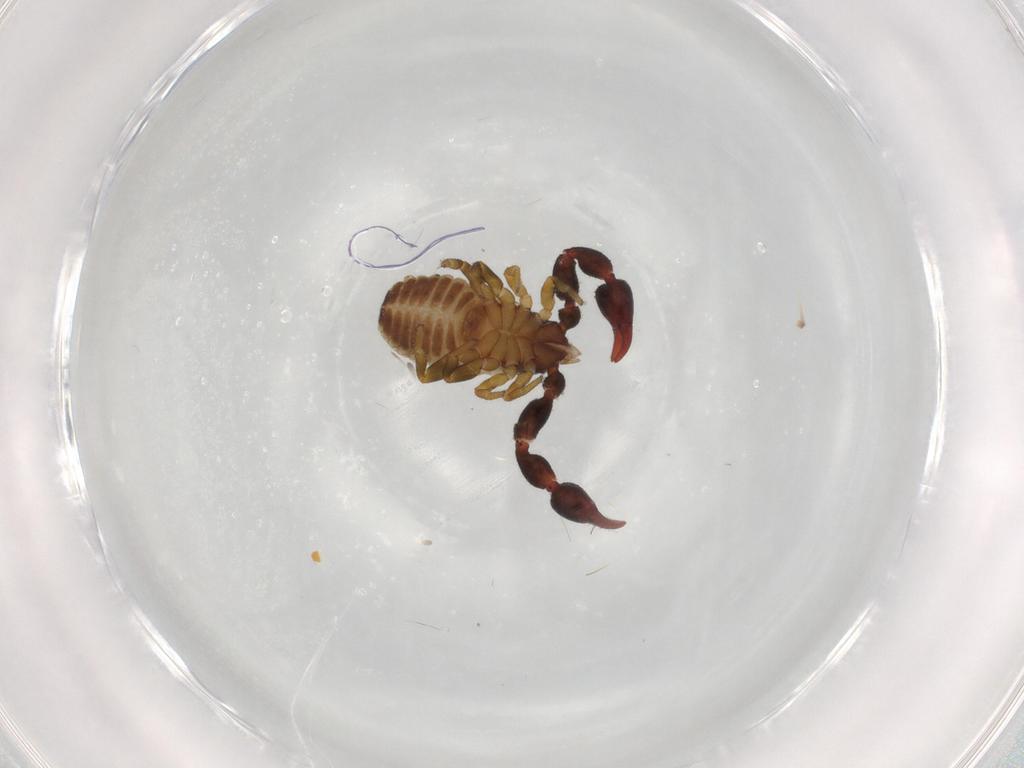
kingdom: Animalia
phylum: Arthropoda
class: Arachnida
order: Pseudoscorpiones
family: Chernetidae
